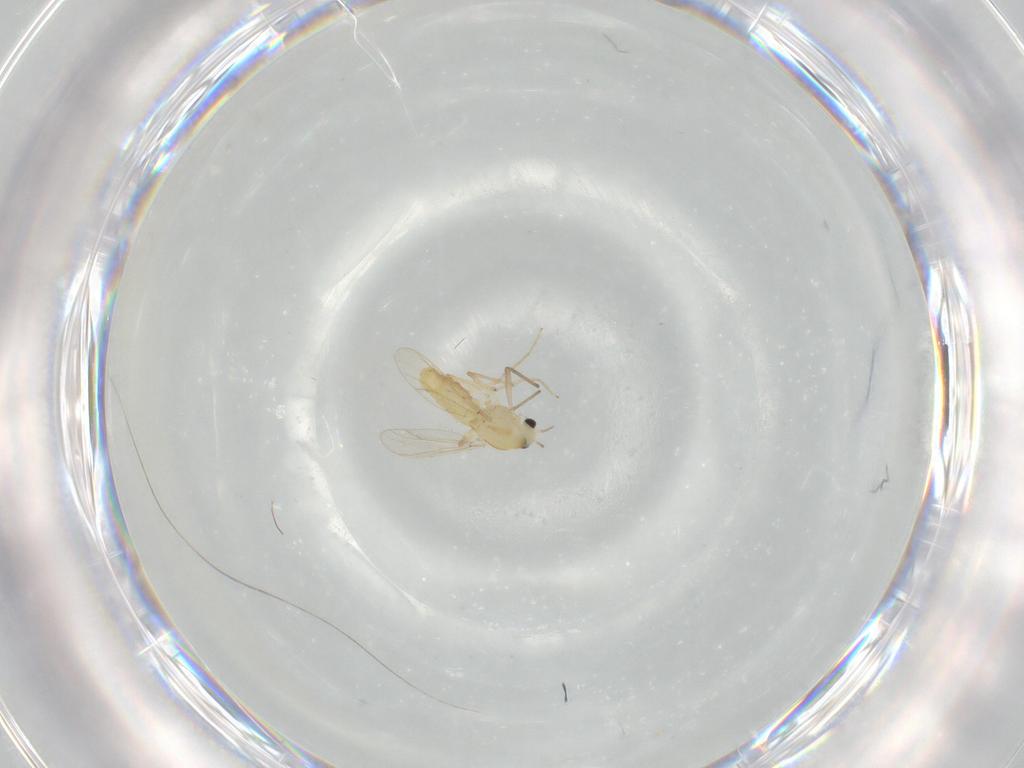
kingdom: Animalia
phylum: Arthropoda
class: Insecta
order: Diptera
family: Chironomidae
